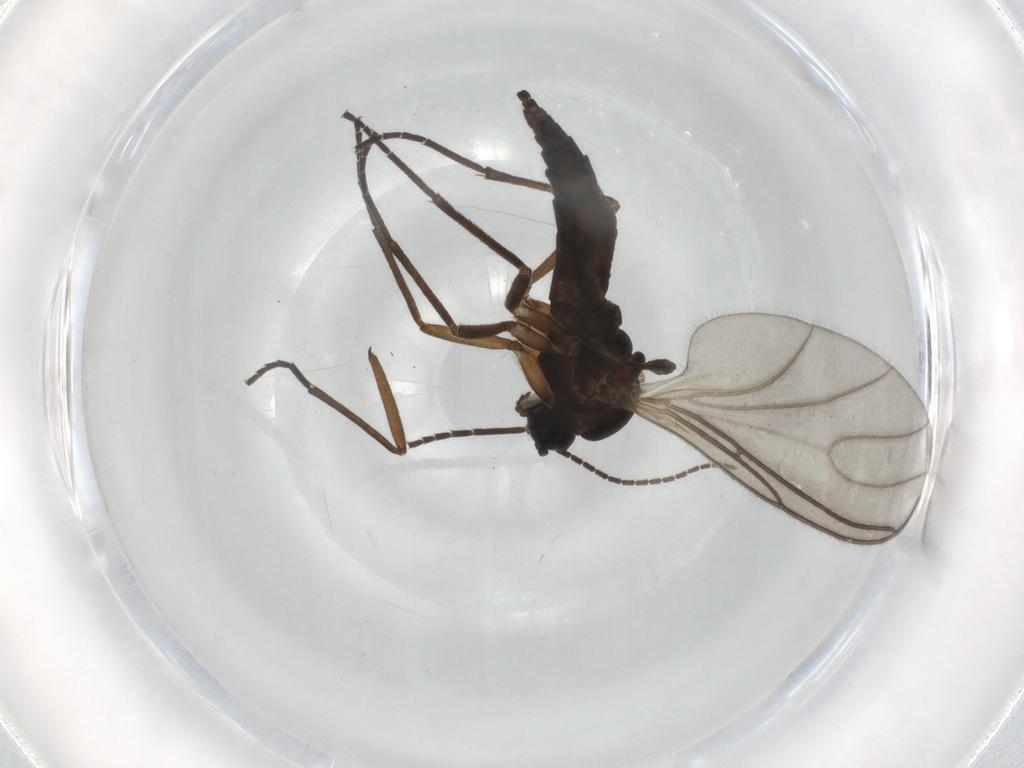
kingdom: Animalia
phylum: Arthropoda
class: Insecta
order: Diptera
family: Sciaridae
